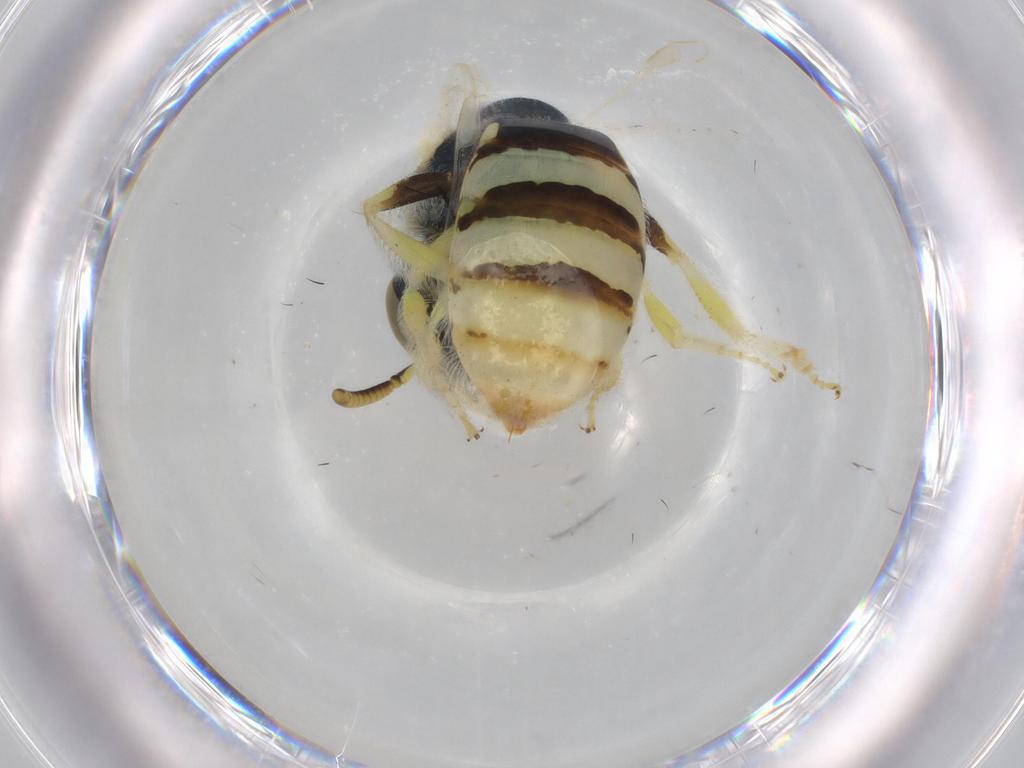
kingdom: Animalia
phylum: Arthropoda
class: Insecta
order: Hymenoptera
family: Halictidae
